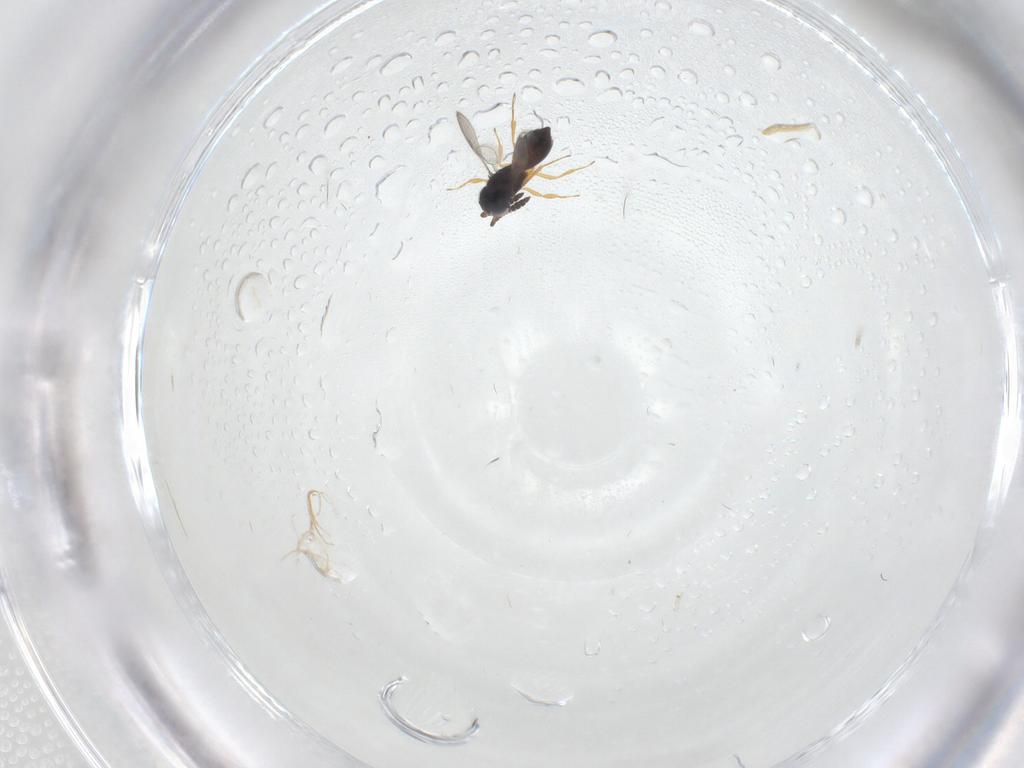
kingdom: Animalia
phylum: Arthropoda
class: Insecta
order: Hymenoptera
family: Scelionidae
